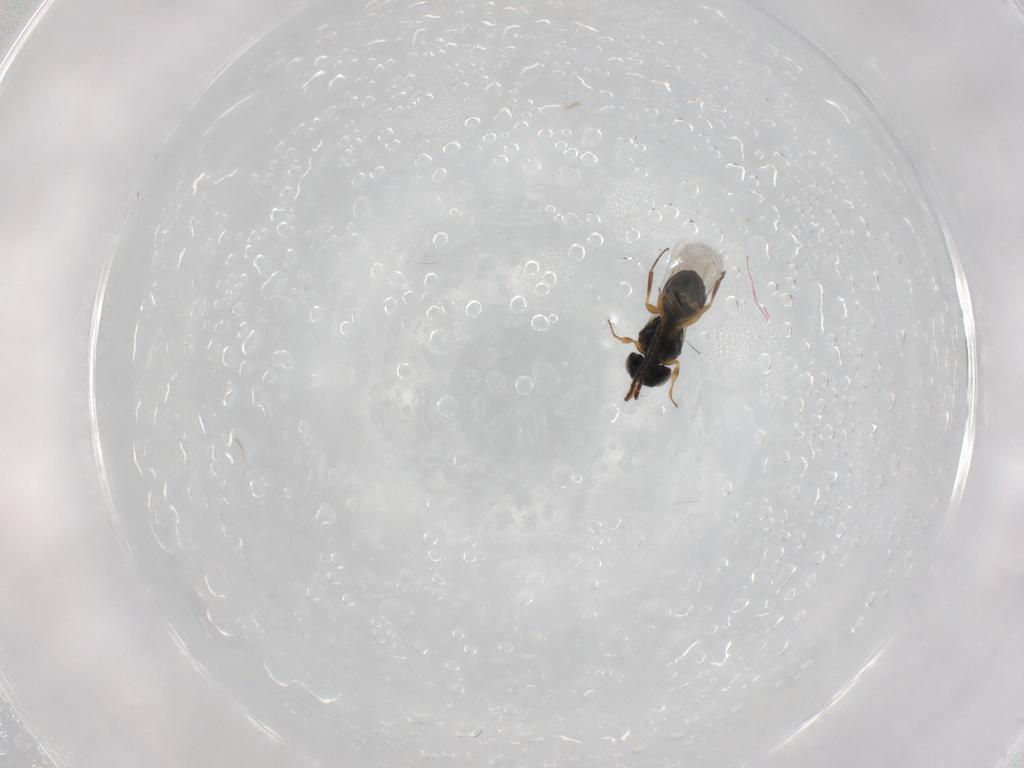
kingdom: Animalia
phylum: Arthropoda
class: Insecta
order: Hymenoptera
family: Scelionidae
